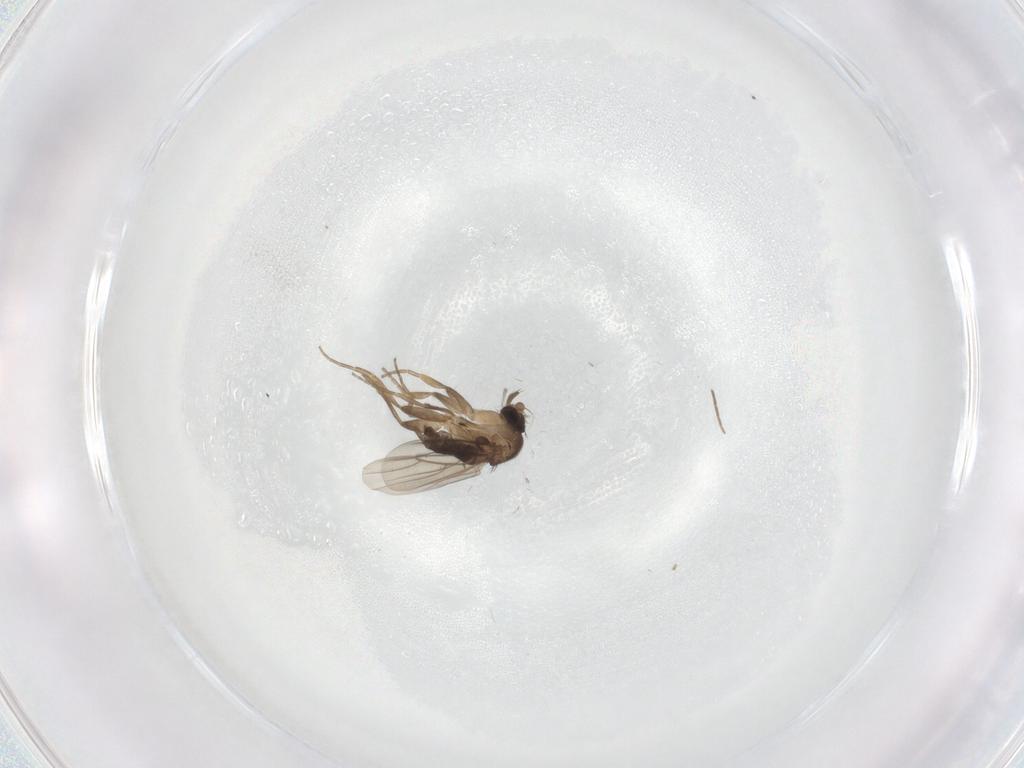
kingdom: Animalia
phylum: Arthropoda
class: Insecta
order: Diptera
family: Phoridae
